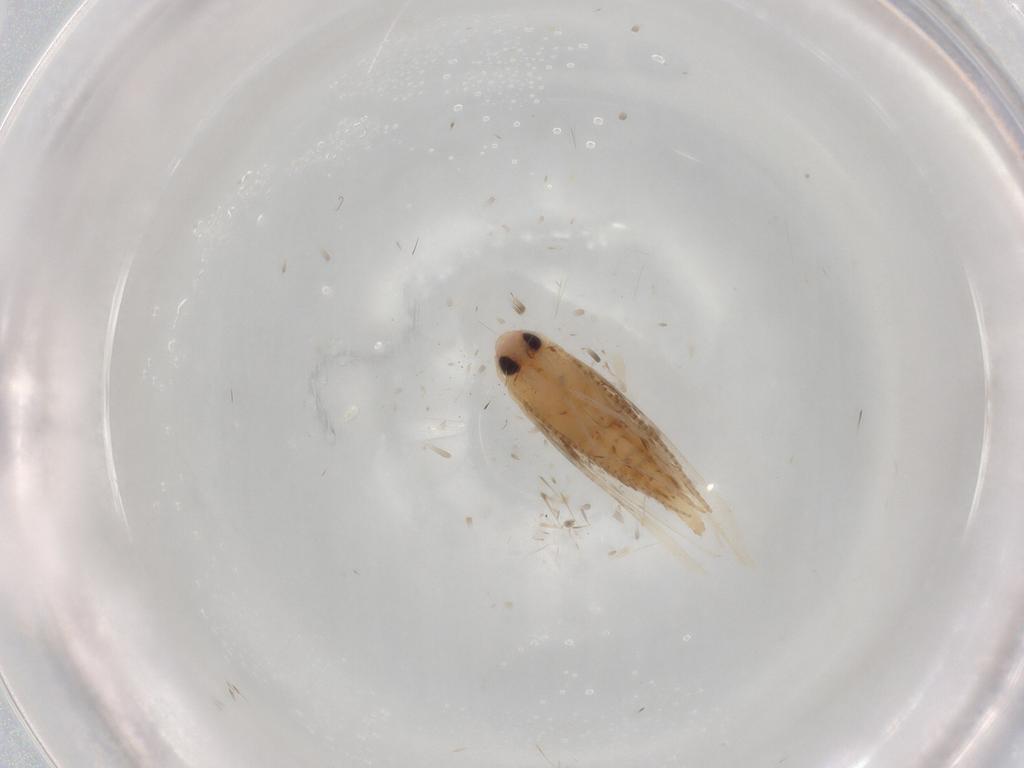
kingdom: Animalia
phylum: Arthropoda
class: Insecta
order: Lepidoptera
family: Gracillariidae
